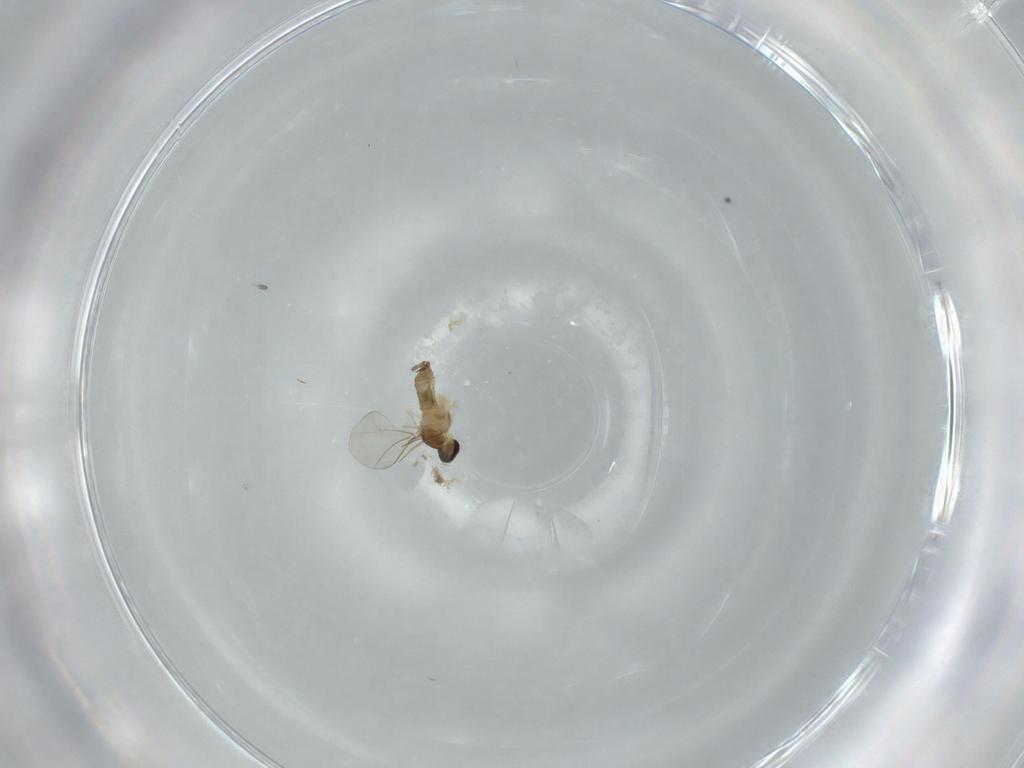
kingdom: Animalia
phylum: Arthropoda
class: Insecta
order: Diptera
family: Cecidomyiidae
